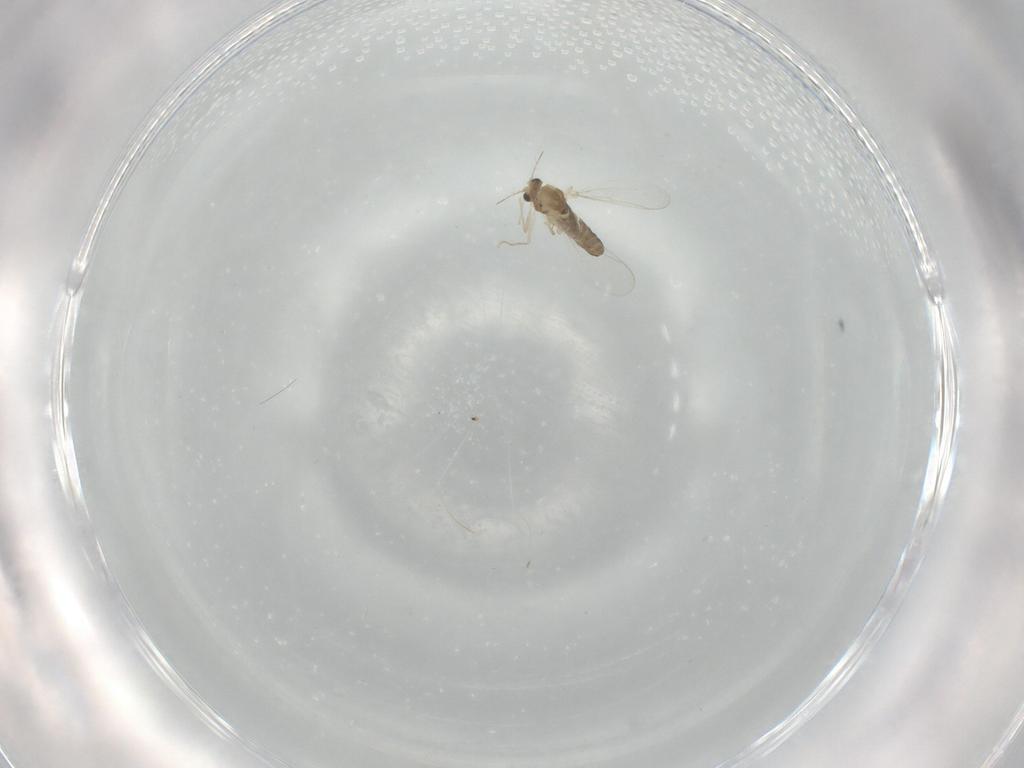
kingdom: Animalia
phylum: Arthropoda
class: Insecta
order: Diptera
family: Chironomidae
